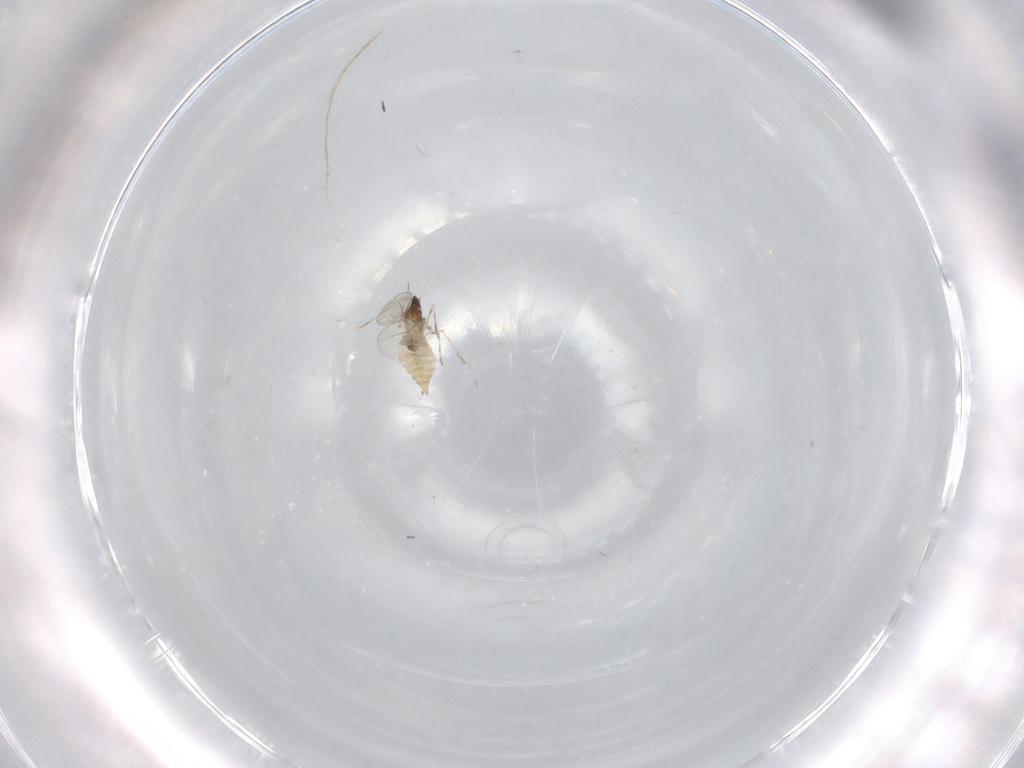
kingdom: Animalia
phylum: Arthropoda
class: Insecta
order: Diptera
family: Cecidomyiidae
